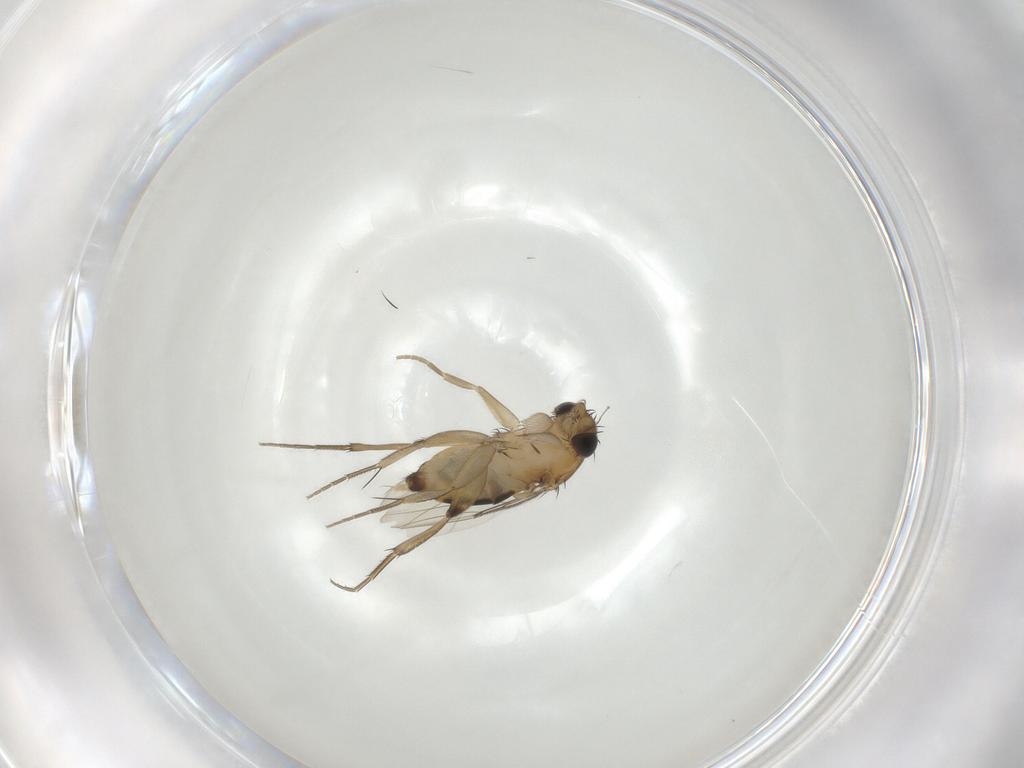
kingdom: Animalia
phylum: Arthropoda
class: Insecta
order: Diptera
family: Phoridae
